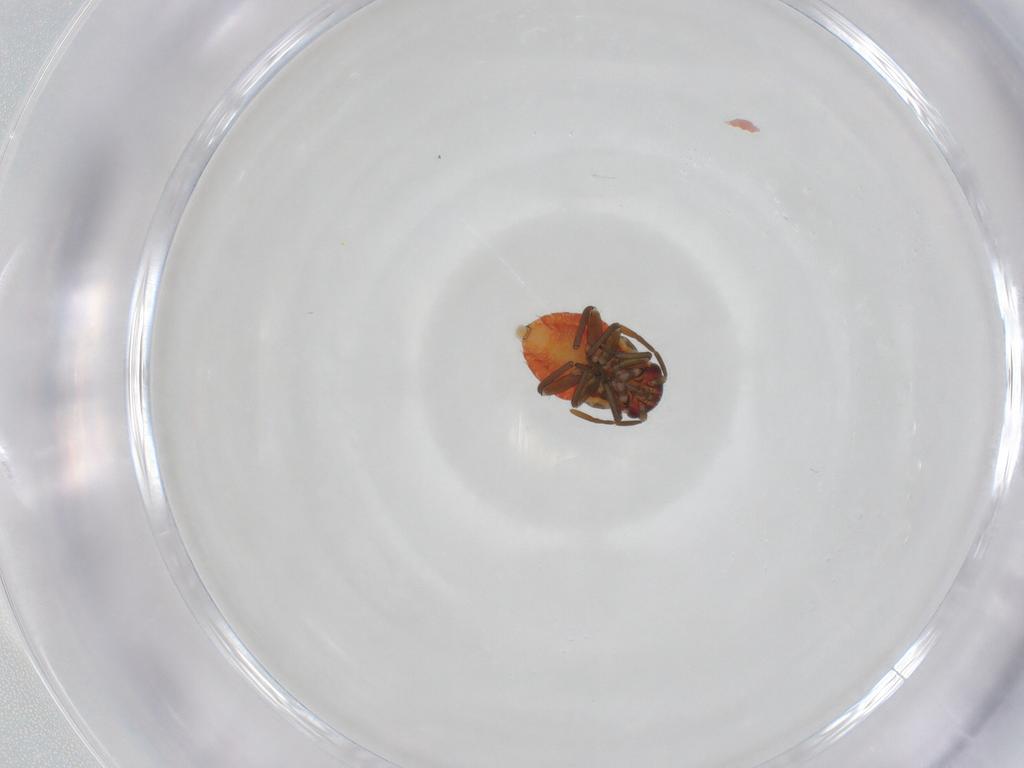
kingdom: Animalia
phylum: Arthropoda
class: Insecta
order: Hemiptera
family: Miridae
